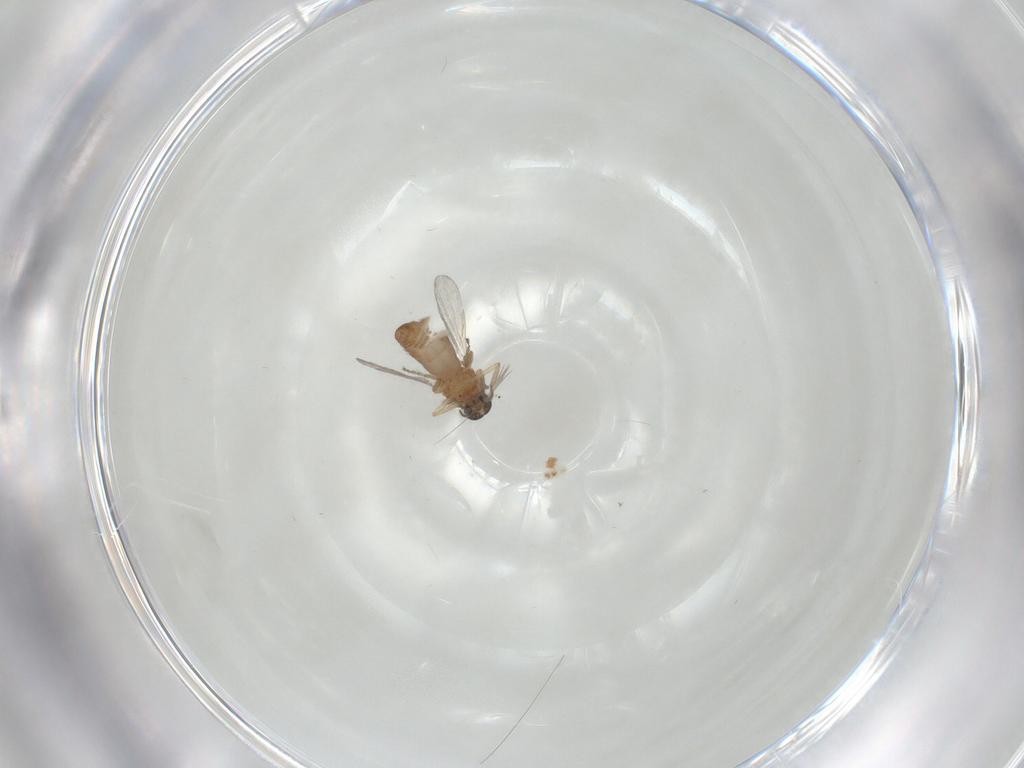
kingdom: Animalia
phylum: Arthropoda
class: Insecta
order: Diptera
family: Ceratopogonidae
